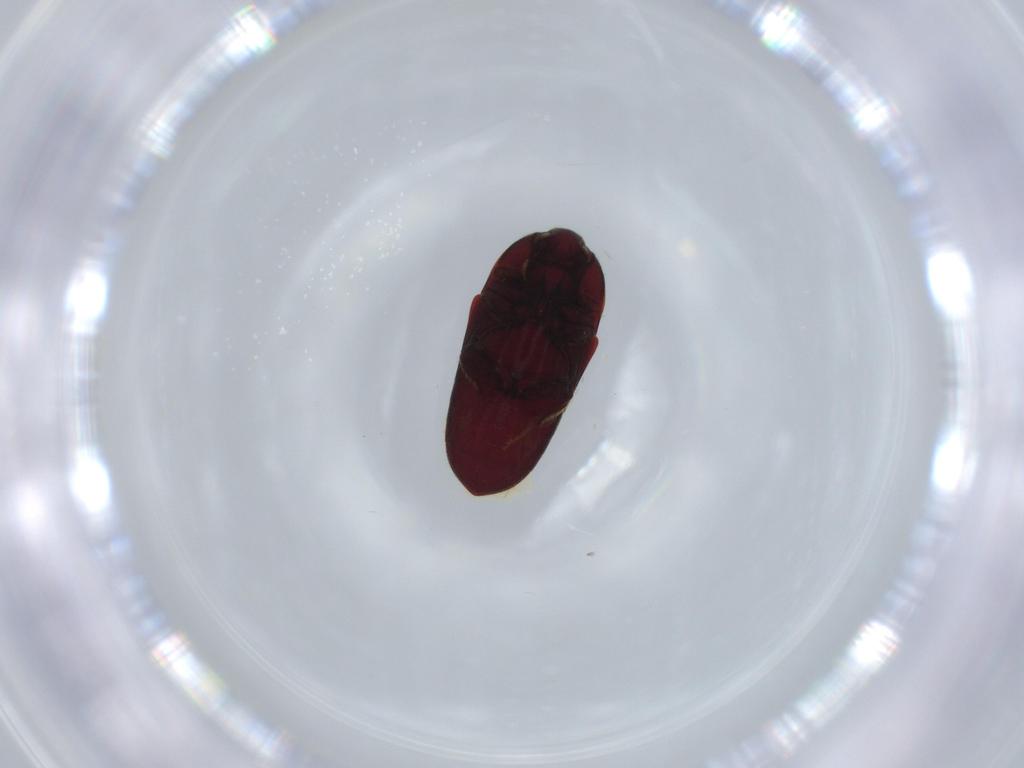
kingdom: Animalia
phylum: Arthropoda
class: Insecta
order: Coleoptera
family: Throscidae
